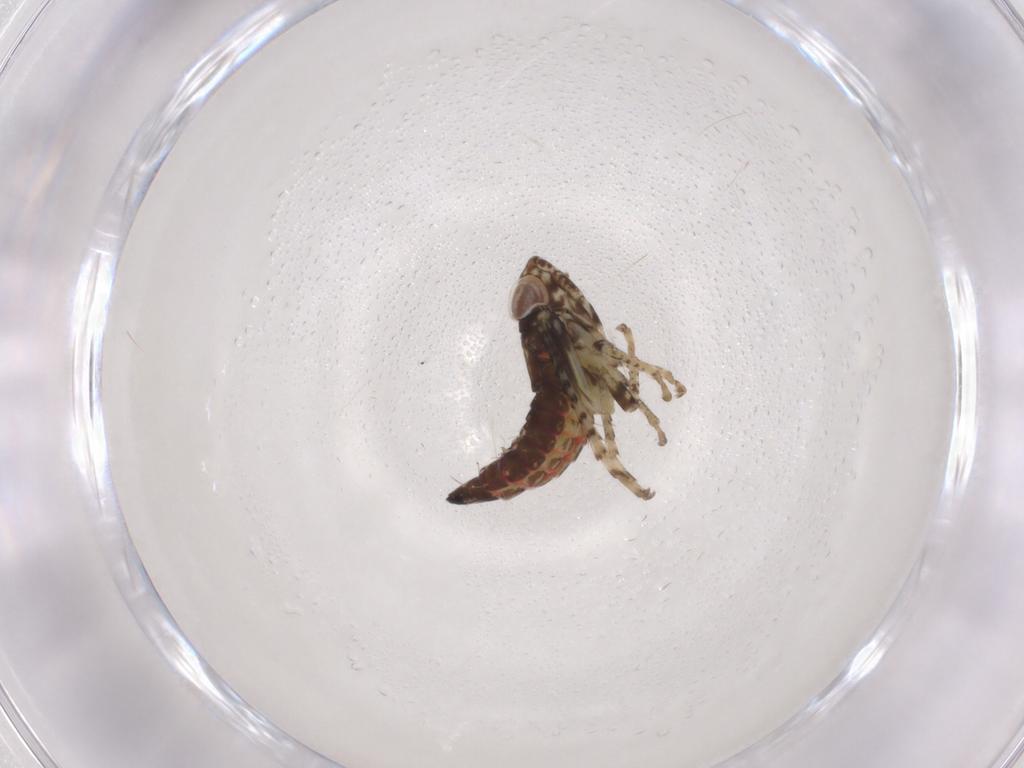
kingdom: Animalia
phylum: Arthropoda
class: Insecta
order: Hemiptera
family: Cicadellidae
